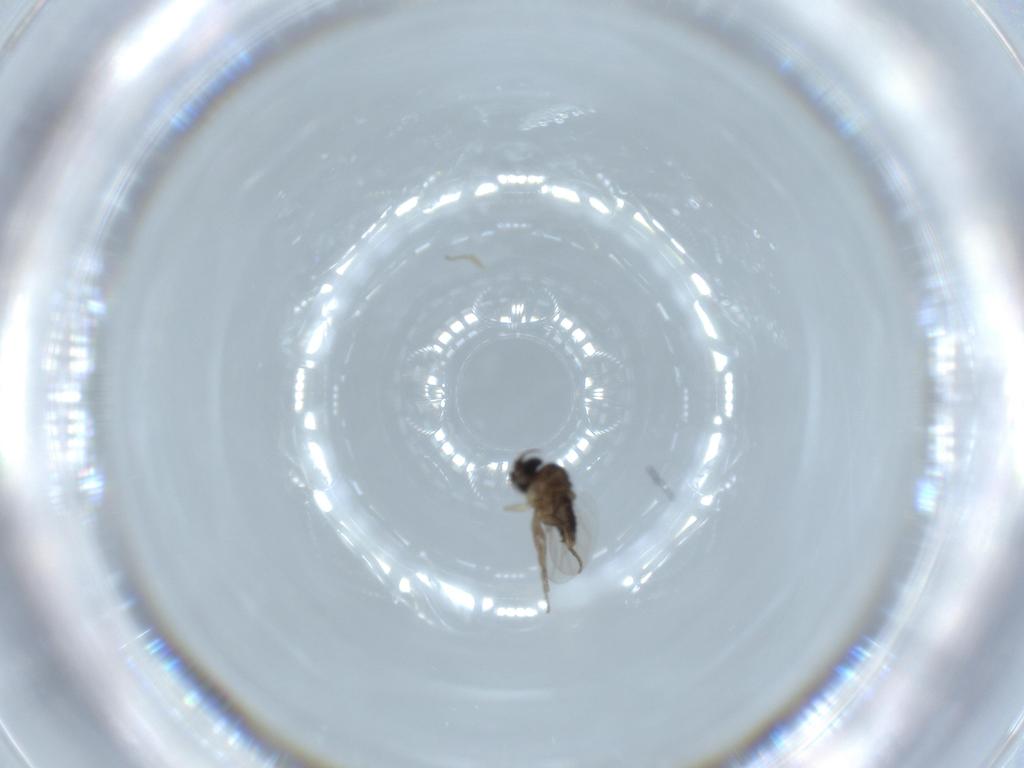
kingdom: Animalia
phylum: Arthropoda
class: Insecta
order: Diptera
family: Phoridae
